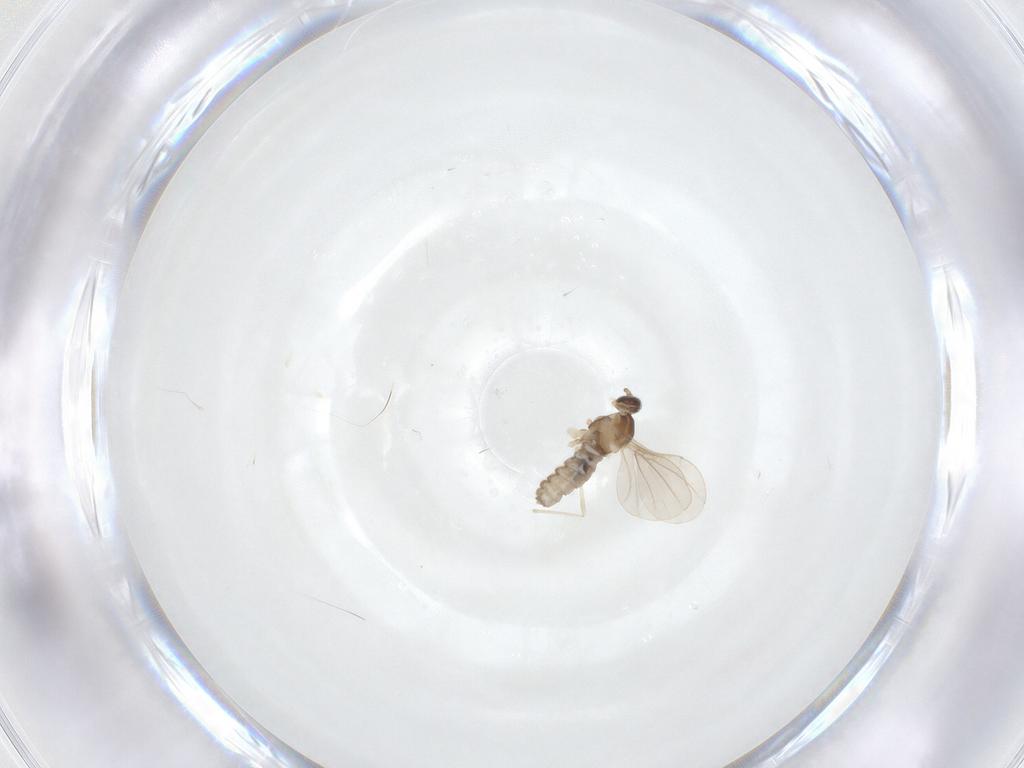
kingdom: Animalia
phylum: Arthropoda
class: Insecta
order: Diptera
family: Cecidomyiidae
